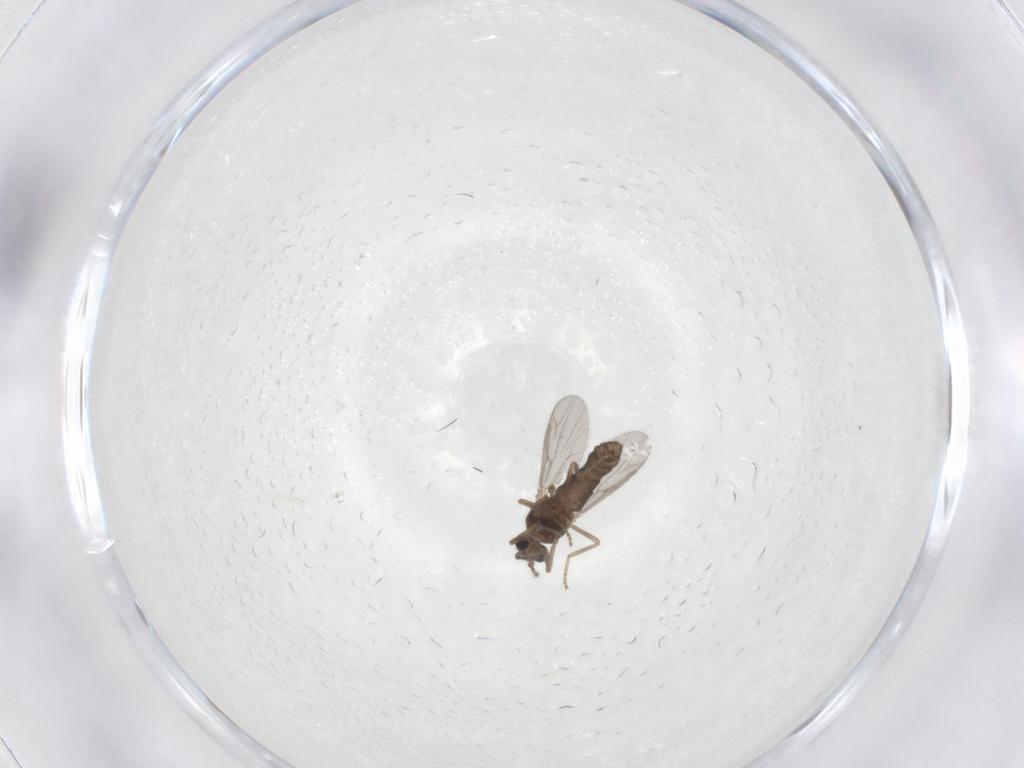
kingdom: Animalia
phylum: Arthropoda
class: Insecta
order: Diptera
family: Ceratopogonidae
